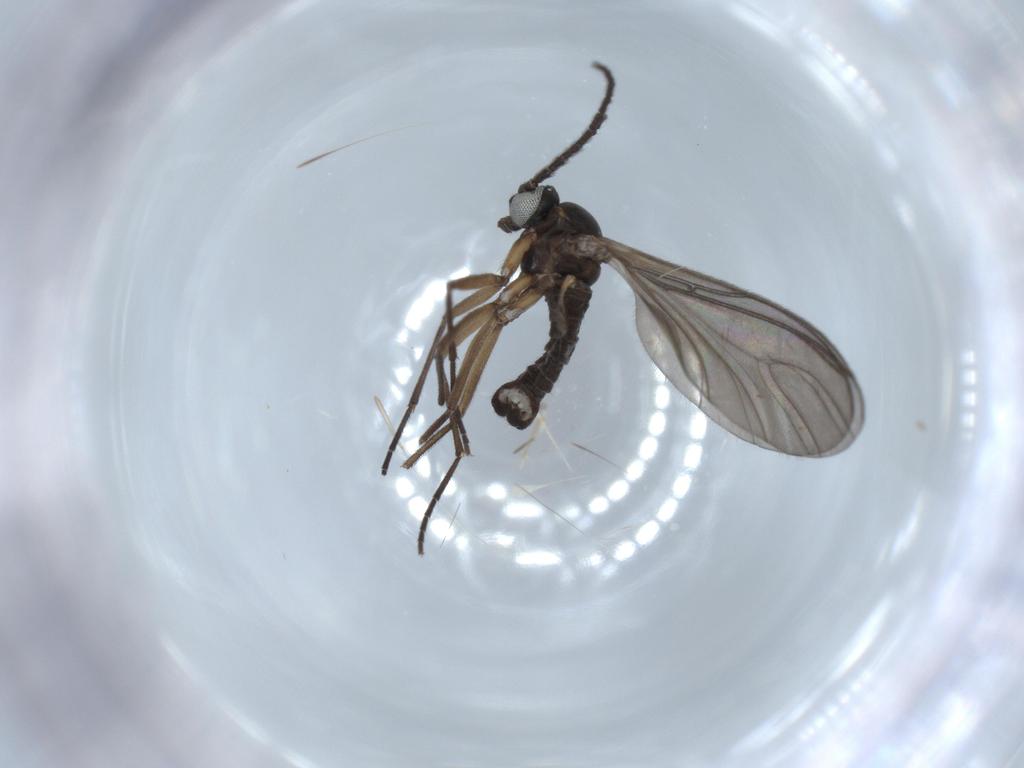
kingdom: Animalia
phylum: Arthropoda
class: Insecta
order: Diptera
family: Sciaridae
